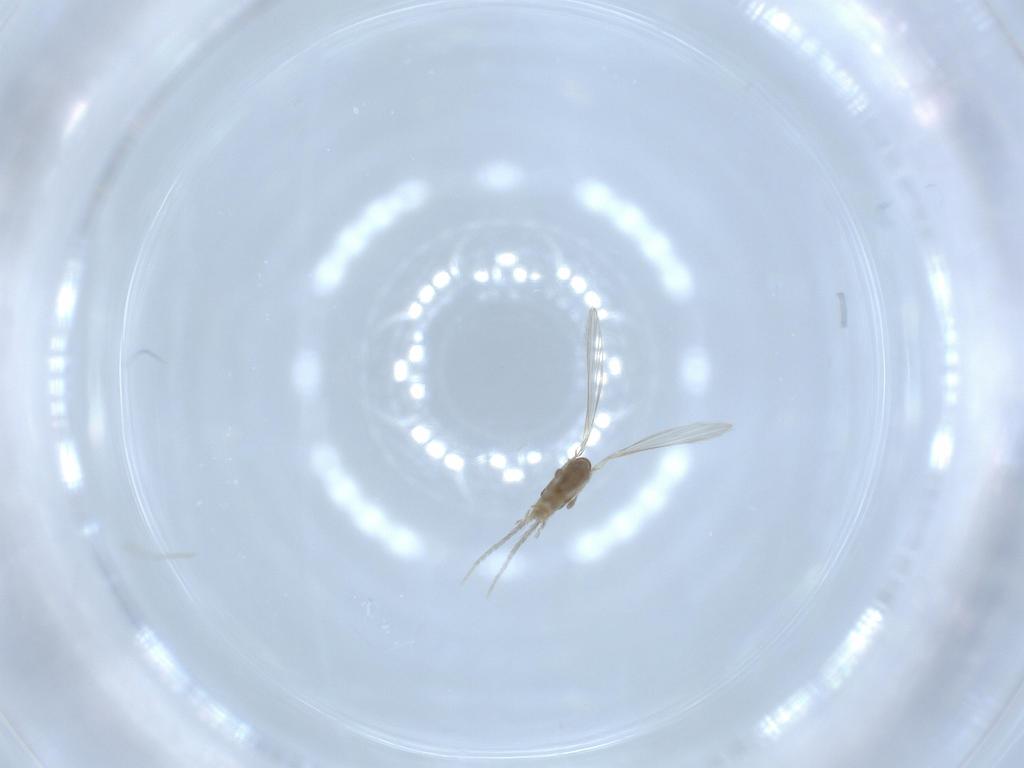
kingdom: Animalia
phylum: Arthropoda
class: Insecta
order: Diptera
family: Psychodidae
